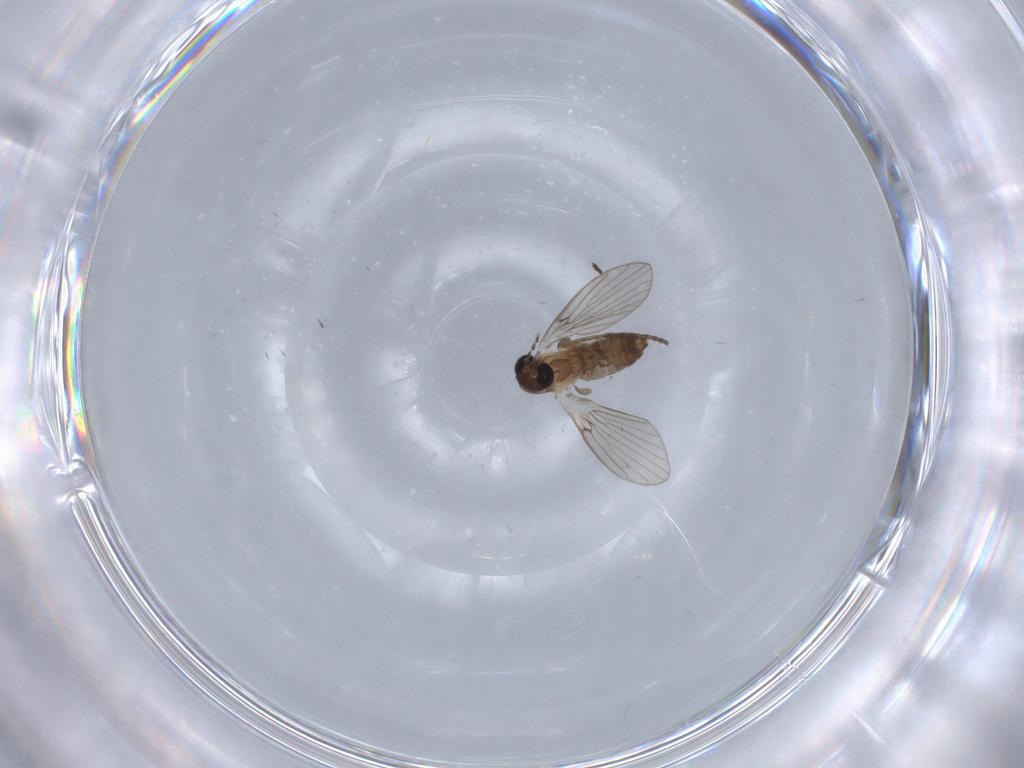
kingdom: Animalia
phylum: Arthropoda
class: Insecta
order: Diptera
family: Psychodidae
